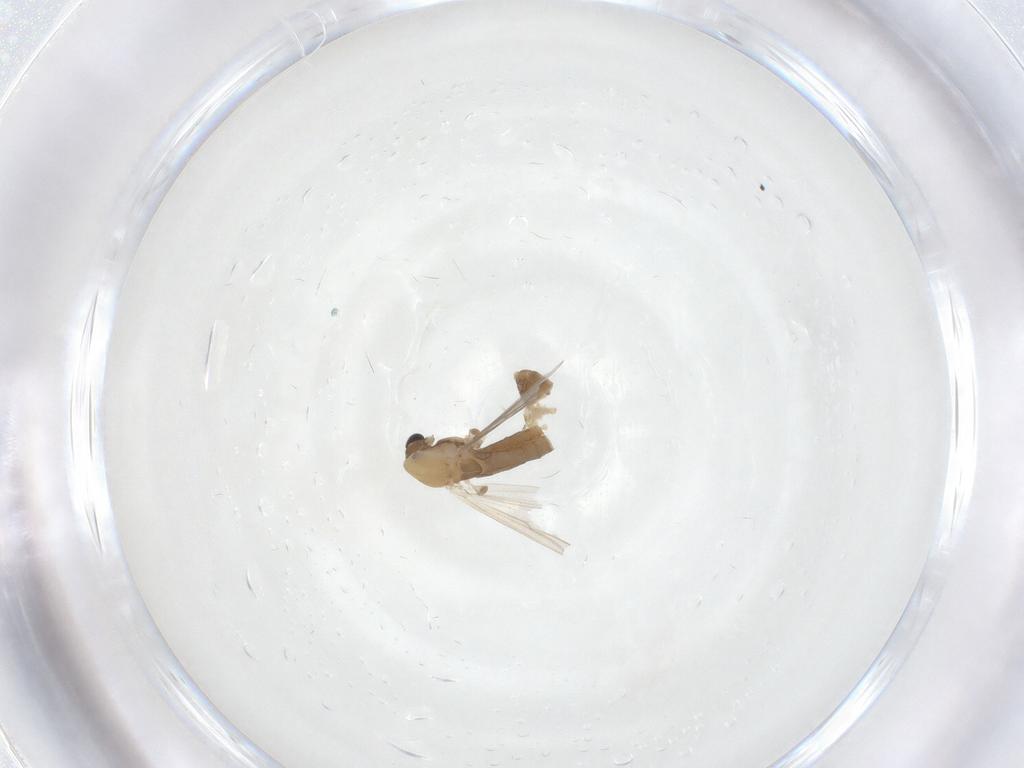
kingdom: Animalia
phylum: Arthropoda
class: Insecta
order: Diptera
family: Chironomidae
